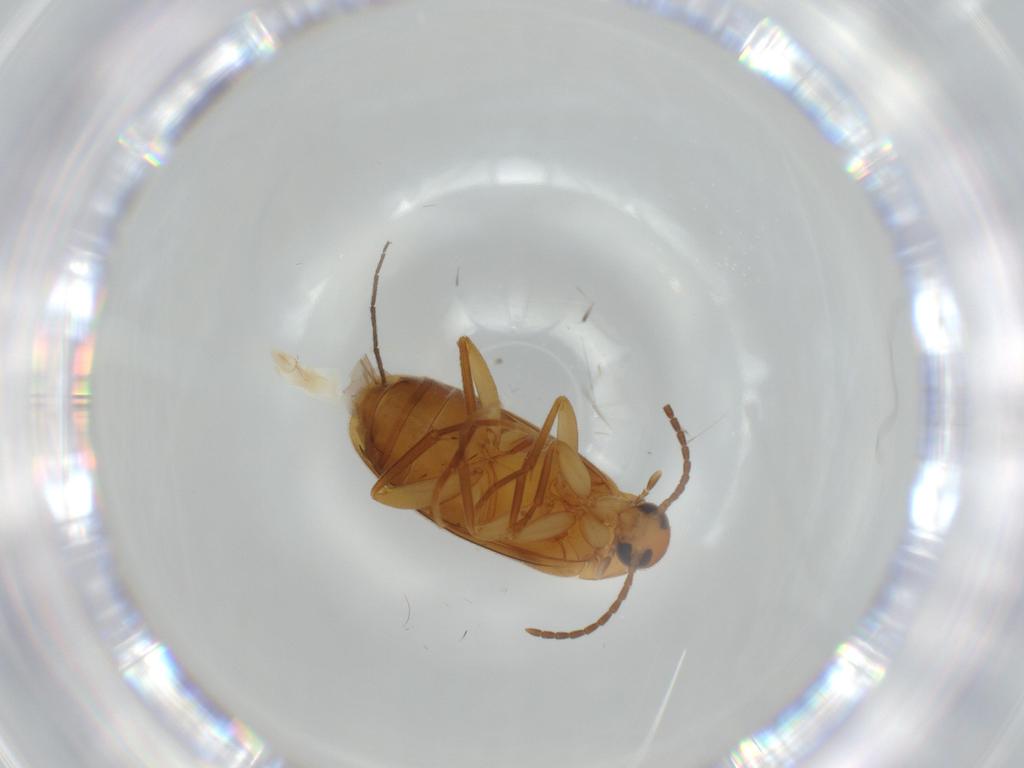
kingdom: Animalia
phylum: Arthropoda
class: Insecta
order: Coleoptera
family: Scraptiidae
